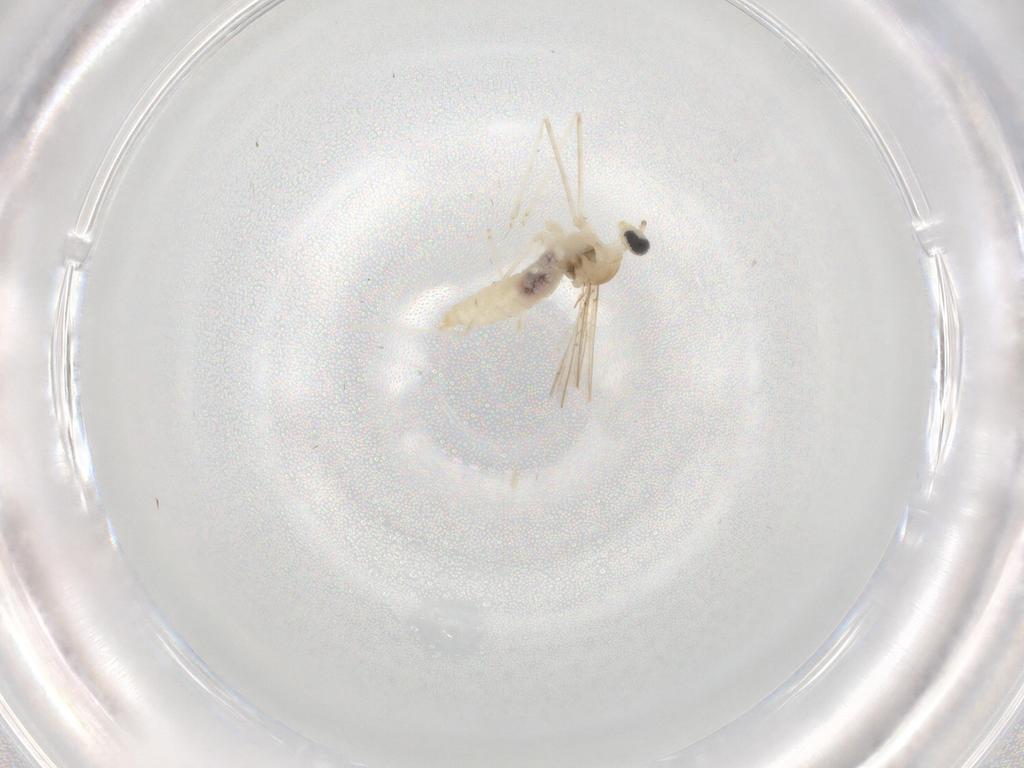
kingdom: Animalia
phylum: Arthropoda
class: Insecta
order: Diptera
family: Cecidomyiidae
